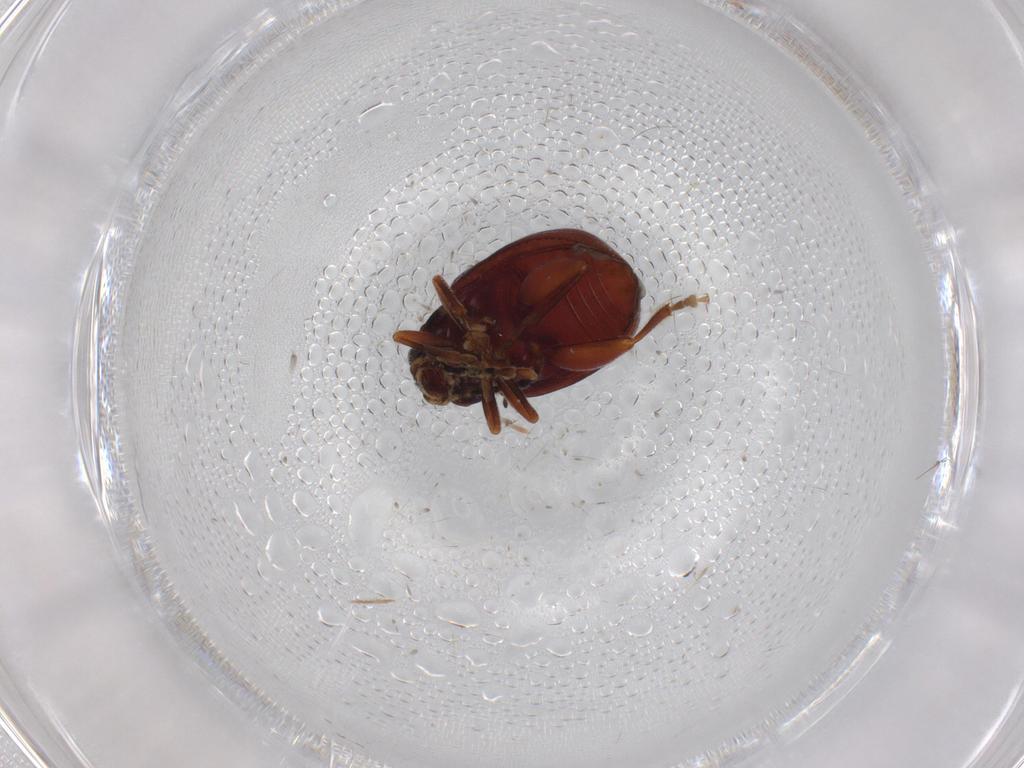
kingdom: Animalia
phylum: Arthropoda
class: Insecta
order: Coleoptera
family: Chrysomelidae
